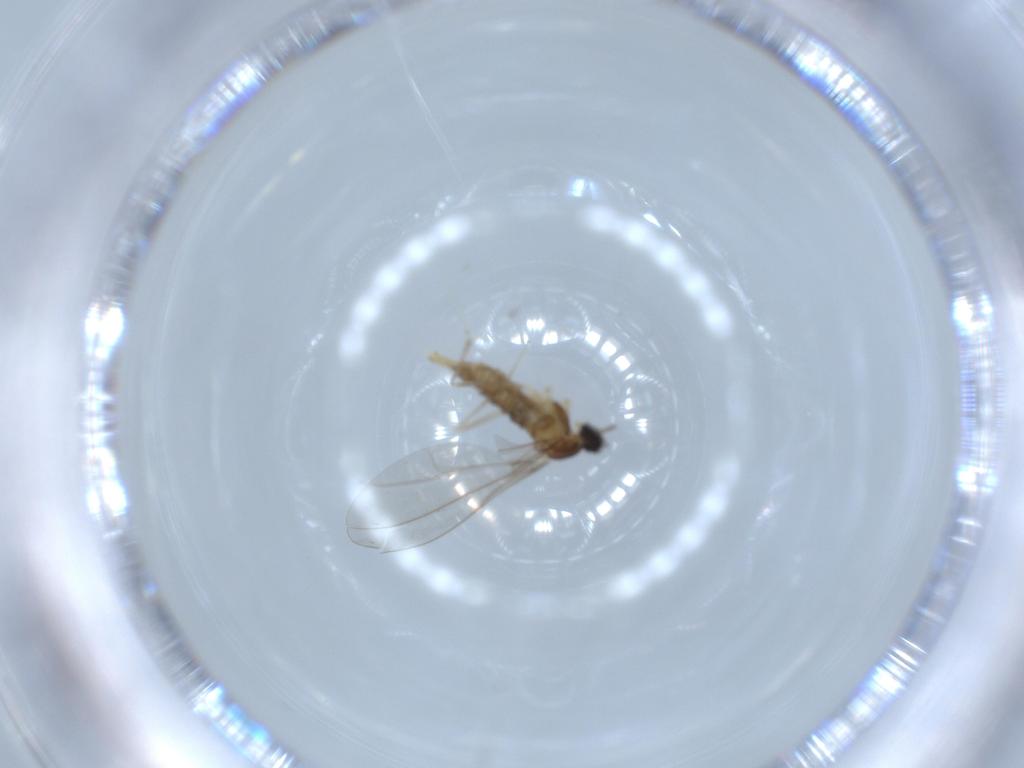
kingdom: Animalia
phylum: Arthropoda
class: Insecta
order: Diptera
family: Cecidomyiidae
